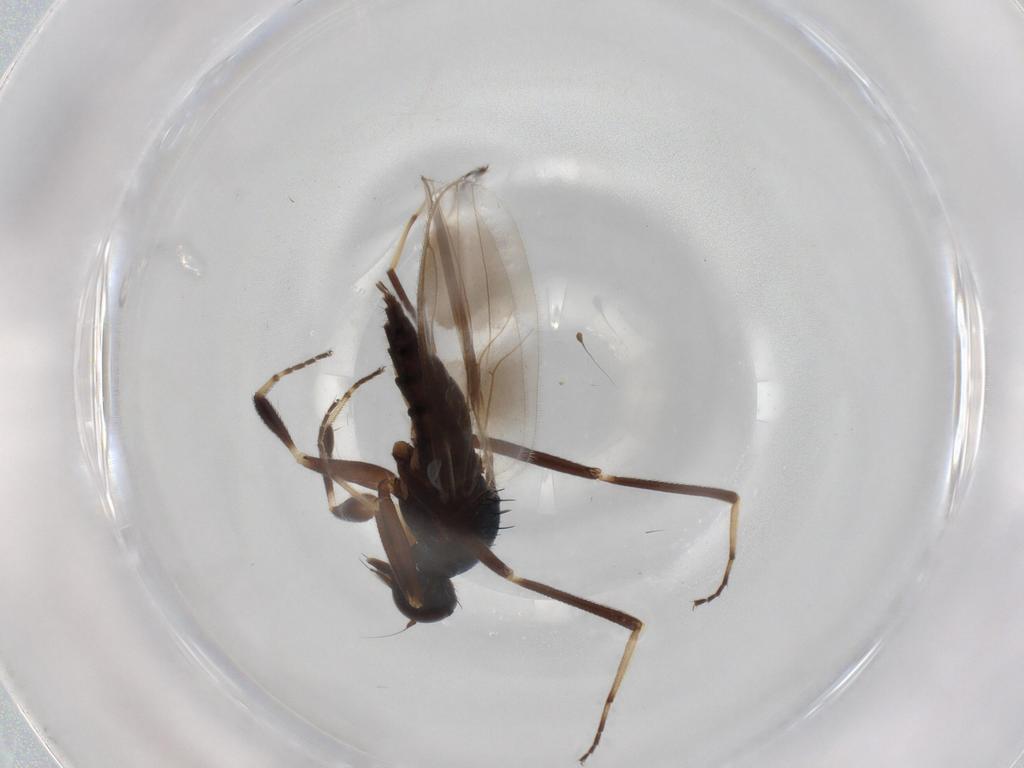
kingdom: Animalia
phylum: Arthropoda
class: Insecta
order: Diptera
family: Hybotidae
